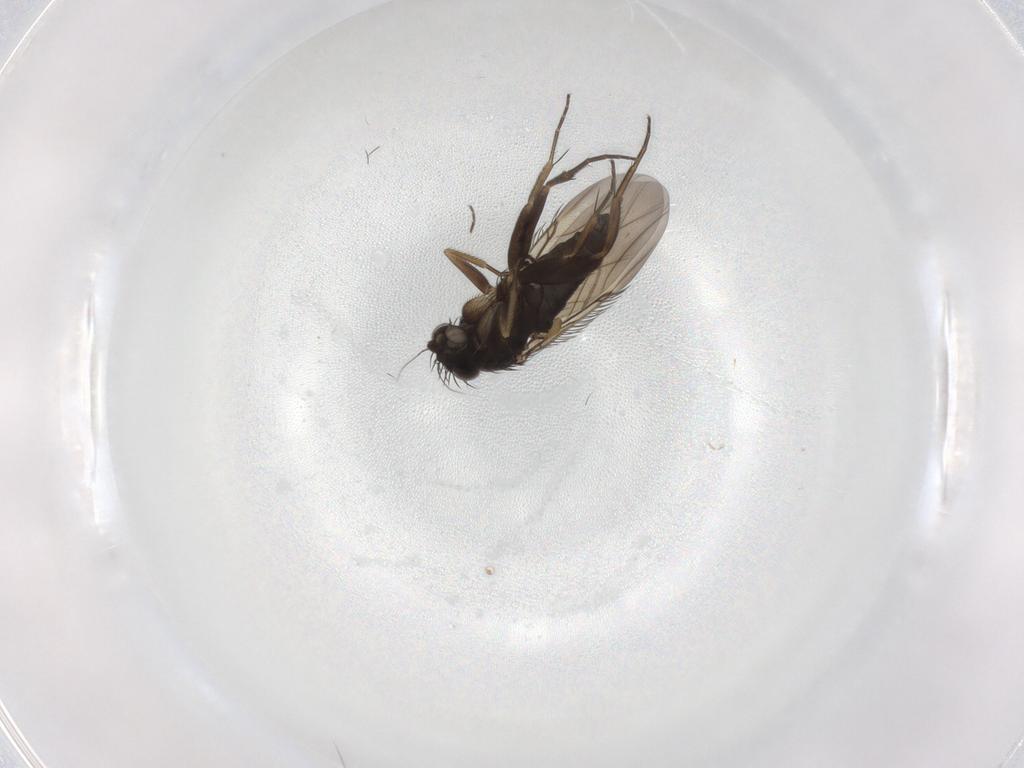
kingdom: Animalia
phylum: Arthropoda
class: Insecta
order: Diptera
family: Phoridae
